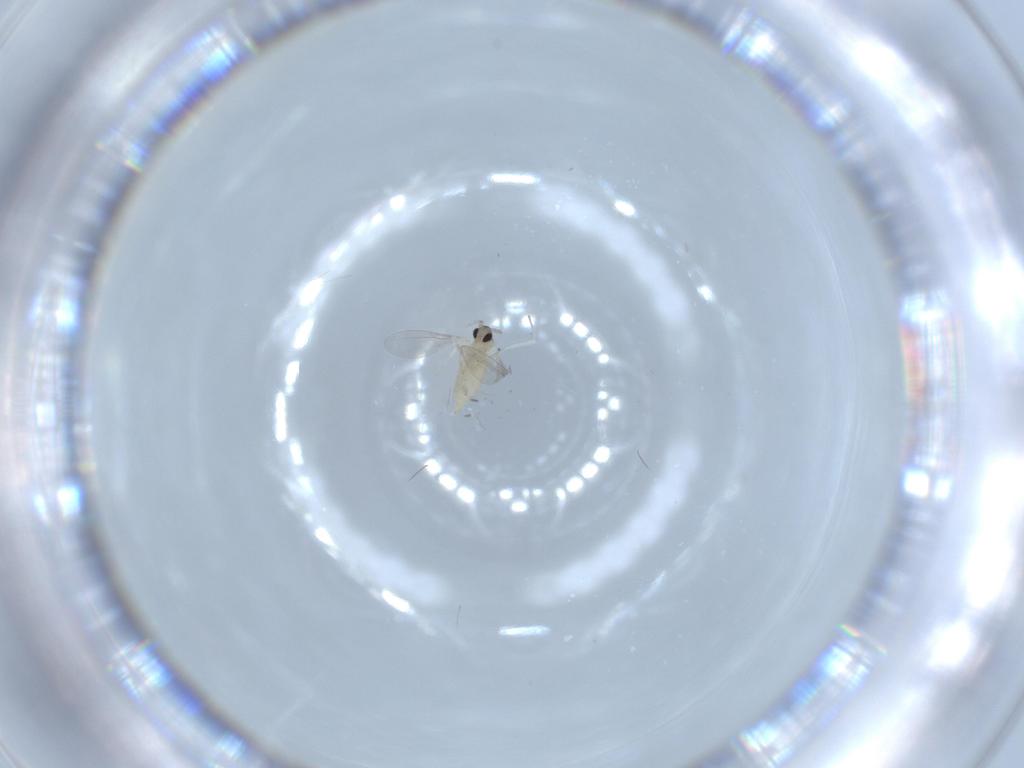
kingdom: Animalia
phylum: Arthropoda
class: Insecta
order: Diptera
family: Cecidomyiidae
